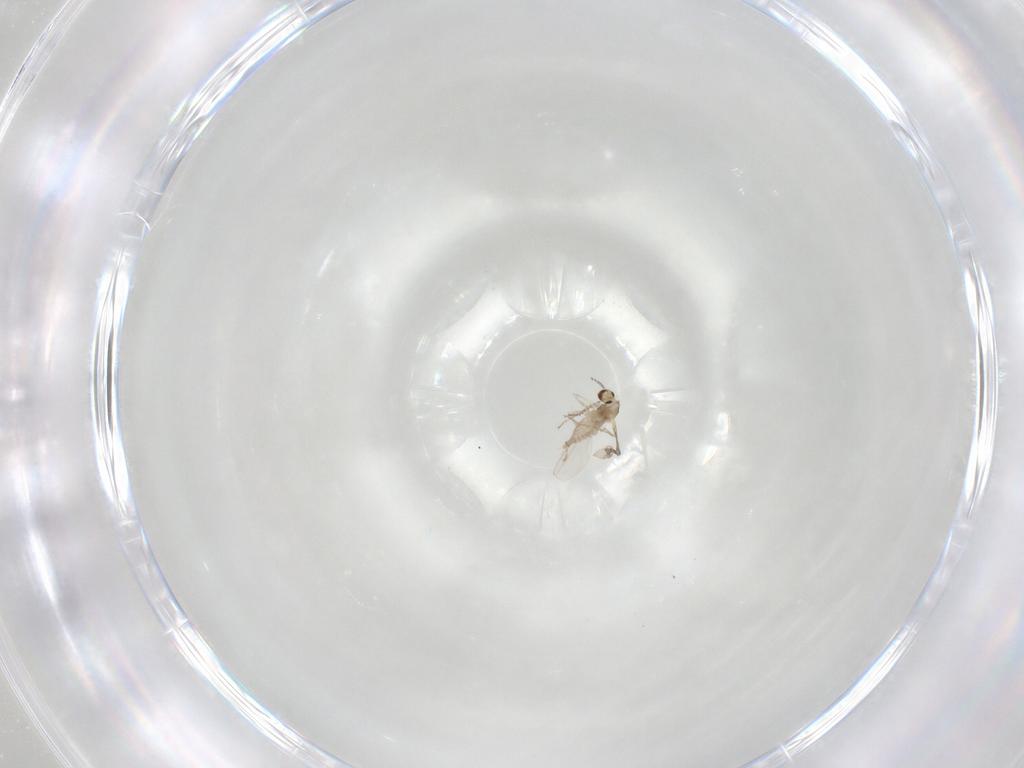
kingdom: Animalia
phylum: Arthropoda
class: Insecta
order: Diptera
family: Cecidomyiidae
